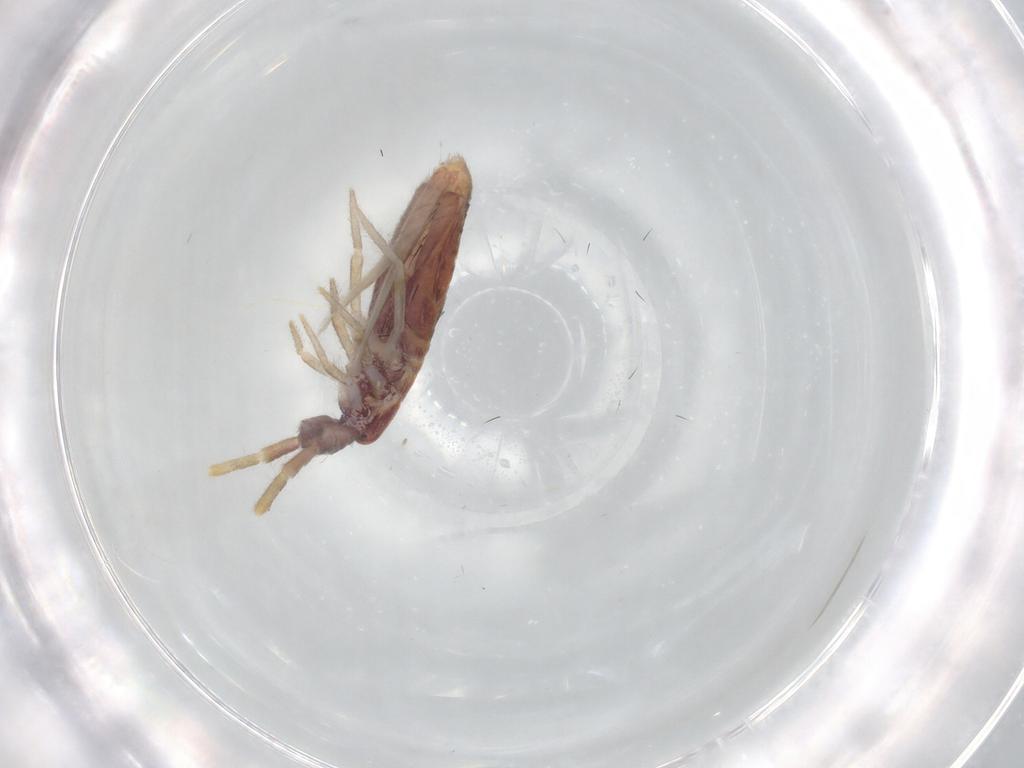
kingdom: Animalia
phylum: Arthropoda
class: Collembola
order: Entomobryomorpha
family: Entomobryidae
